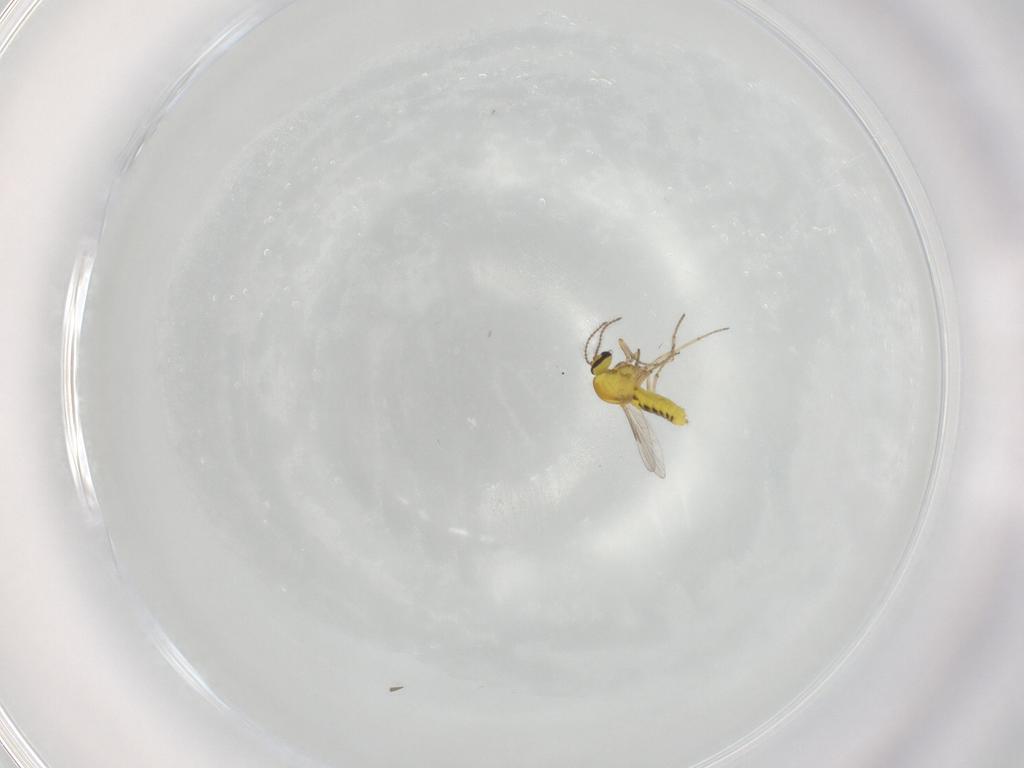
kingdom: Animalia
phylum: Arthropoda
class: Insecta
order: Diptera
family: Ceratopogonidae
